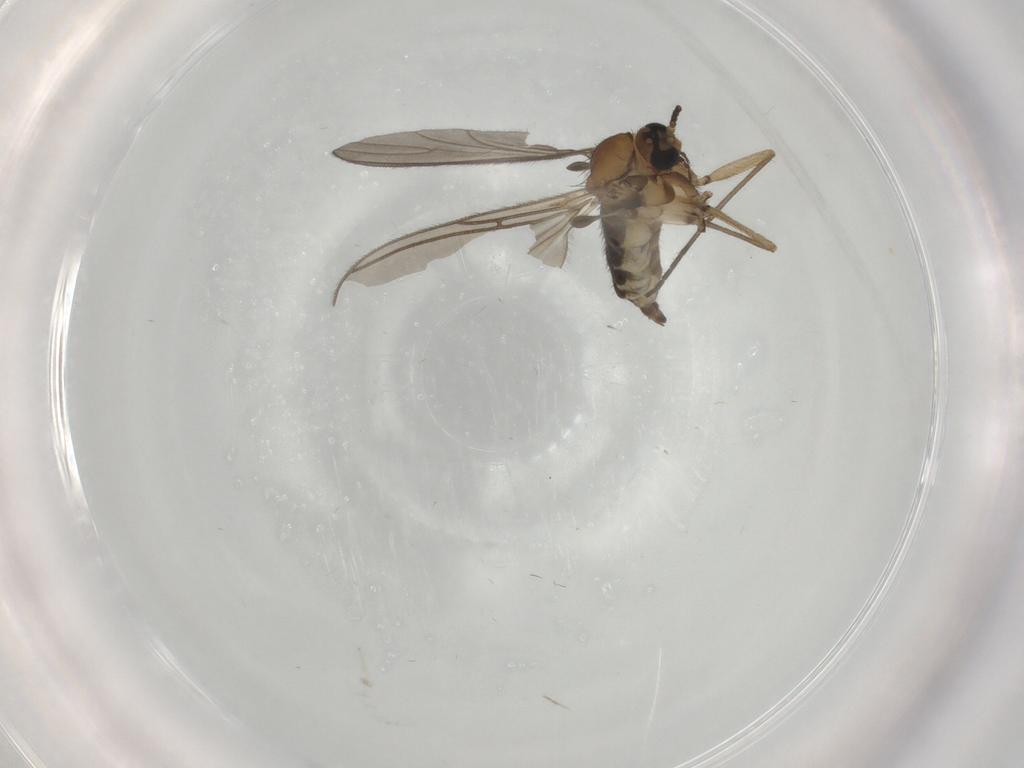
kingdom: Animalia
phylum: Arthropoda
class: Insecta
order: Diptera
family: Sciaridae
